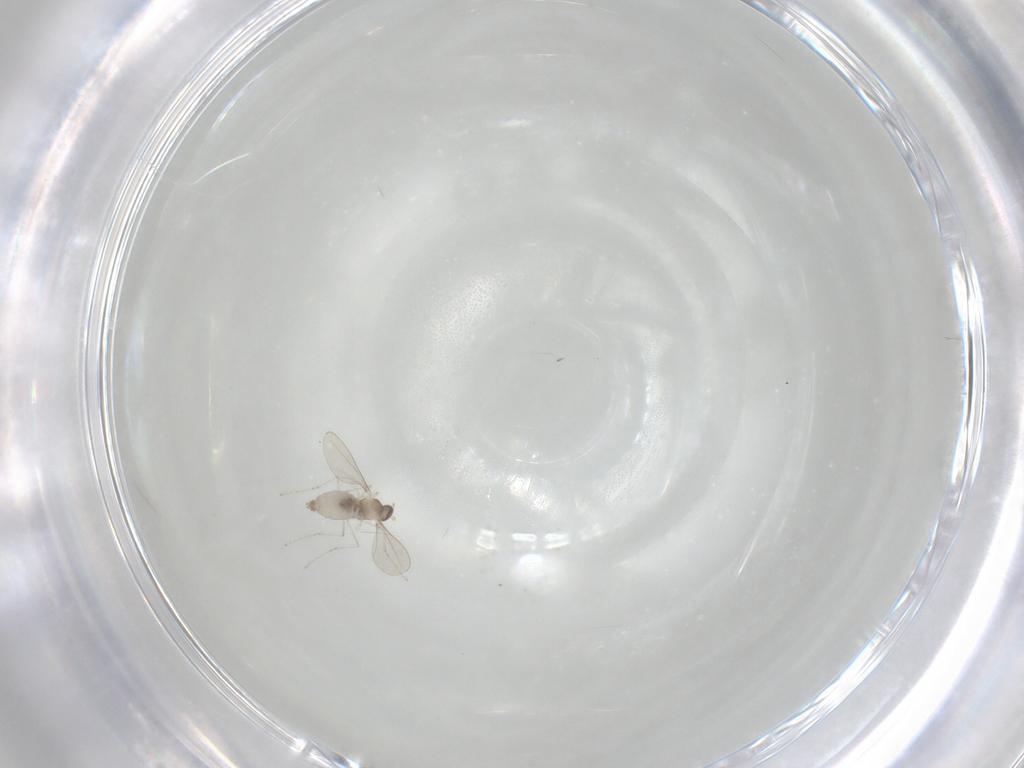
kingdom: Animalia
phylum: Arthropoda
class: Insecta
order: Diptera
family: Cecidomyiidae
